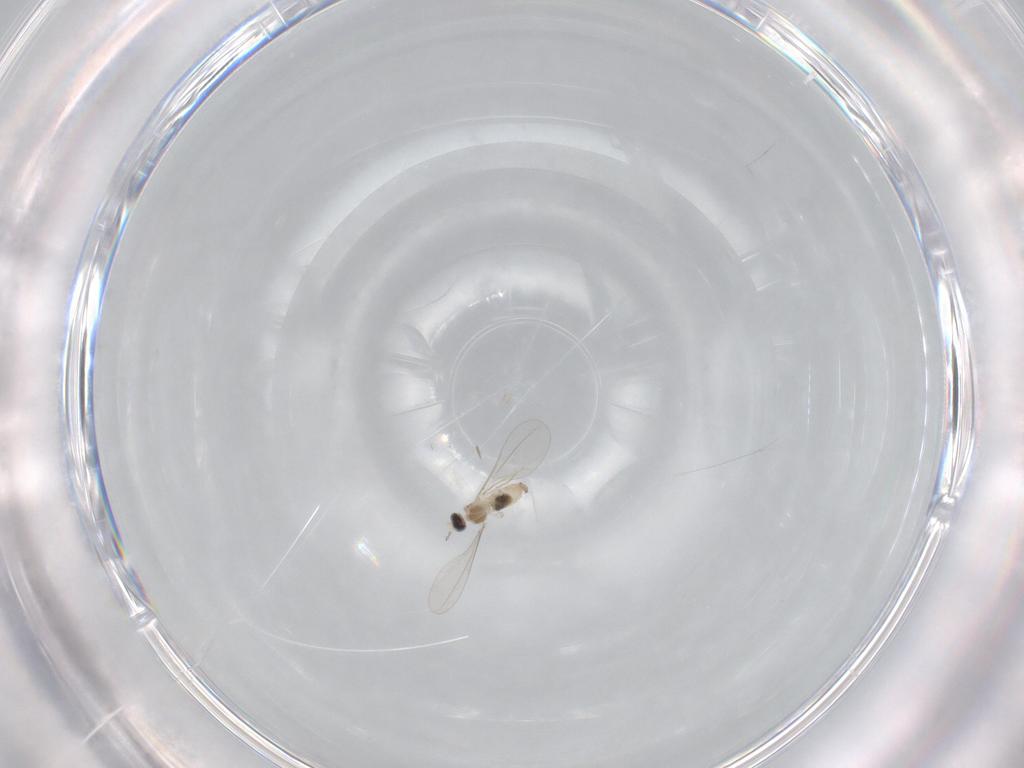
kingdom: Animalia
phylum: Arthropoda
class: Insecta
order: Diptera
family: Cecidomyiidae
